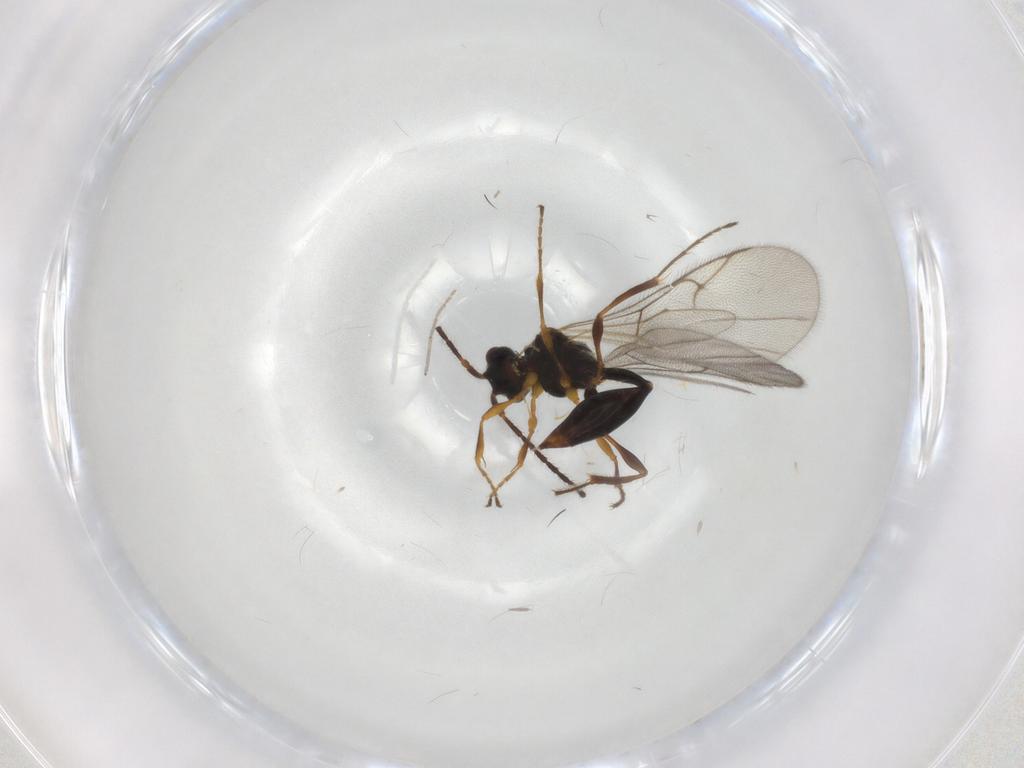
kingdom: Animalia
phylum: Arthropoda
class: Insecta
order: Hymenoptera
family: Diapriidae
